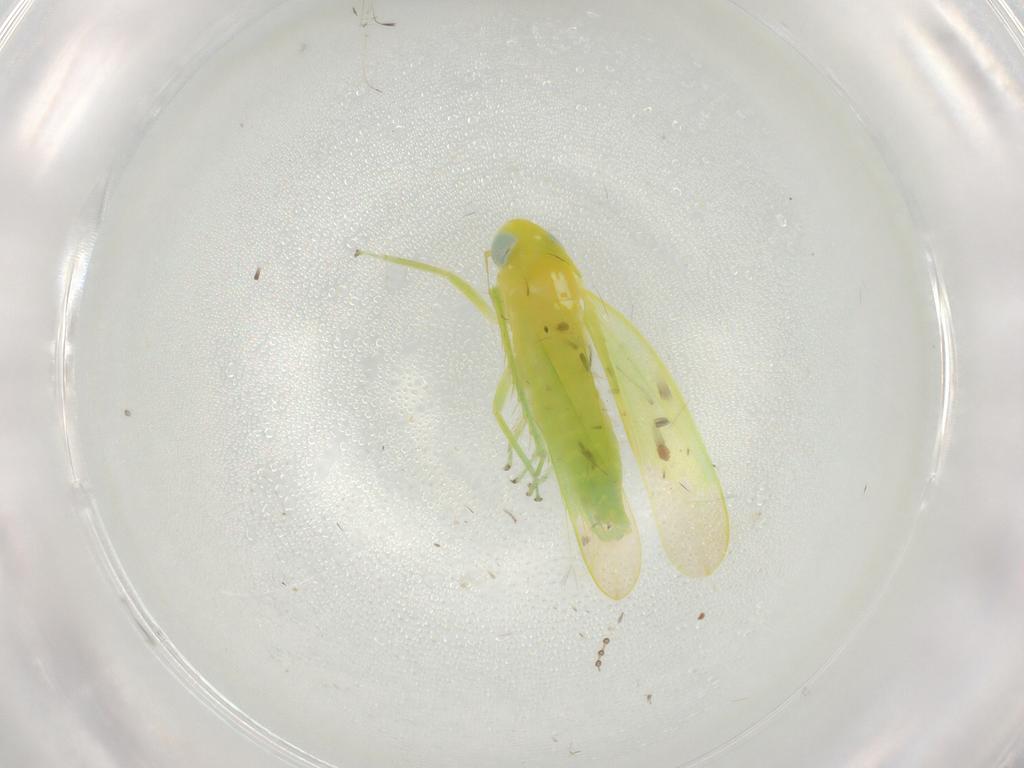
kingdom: Animalia
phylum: Arthropoda
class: Insecta
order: Hemiptera
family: Cicadellidae
